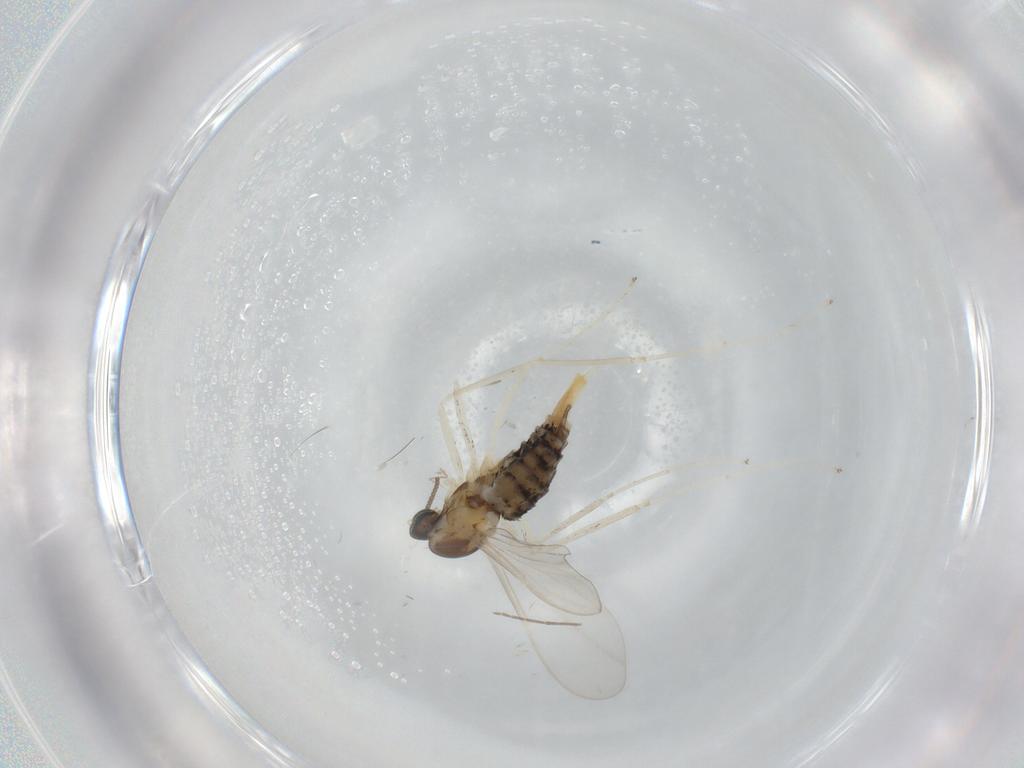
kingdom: Animalia
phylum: Arthropoda
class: Insecta
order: Diptera
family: Cecidomyiidae
